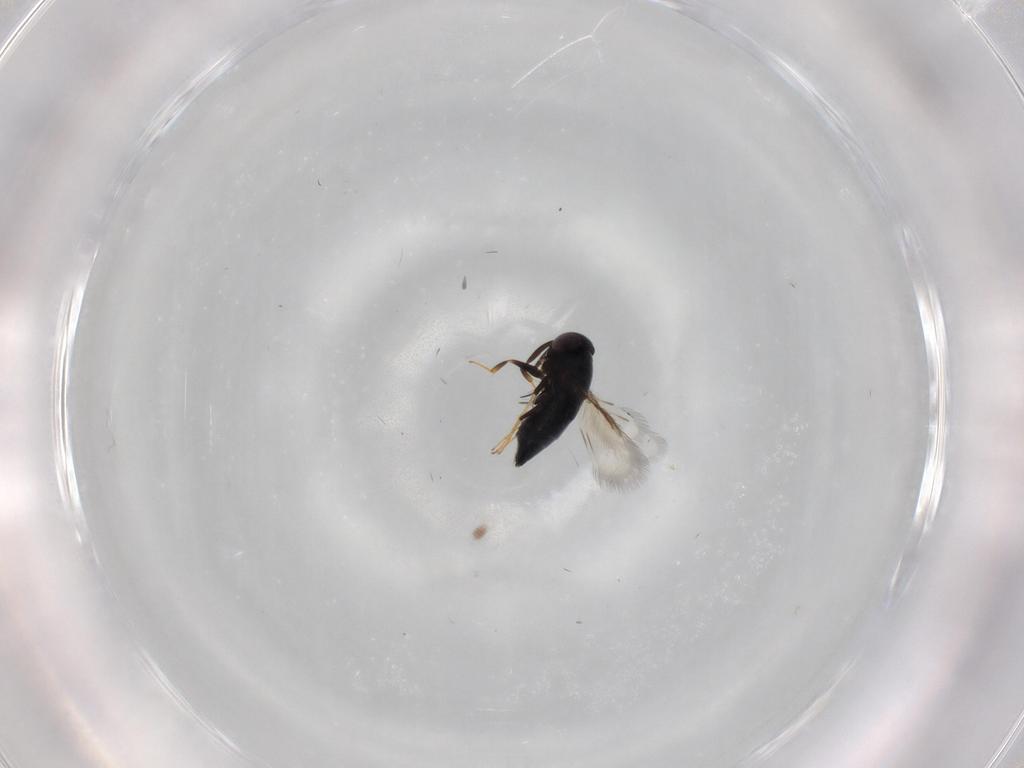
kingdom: Animalia
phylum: Arthropoda
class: Insecta
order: Hymenoptera
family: Signiphoridae
